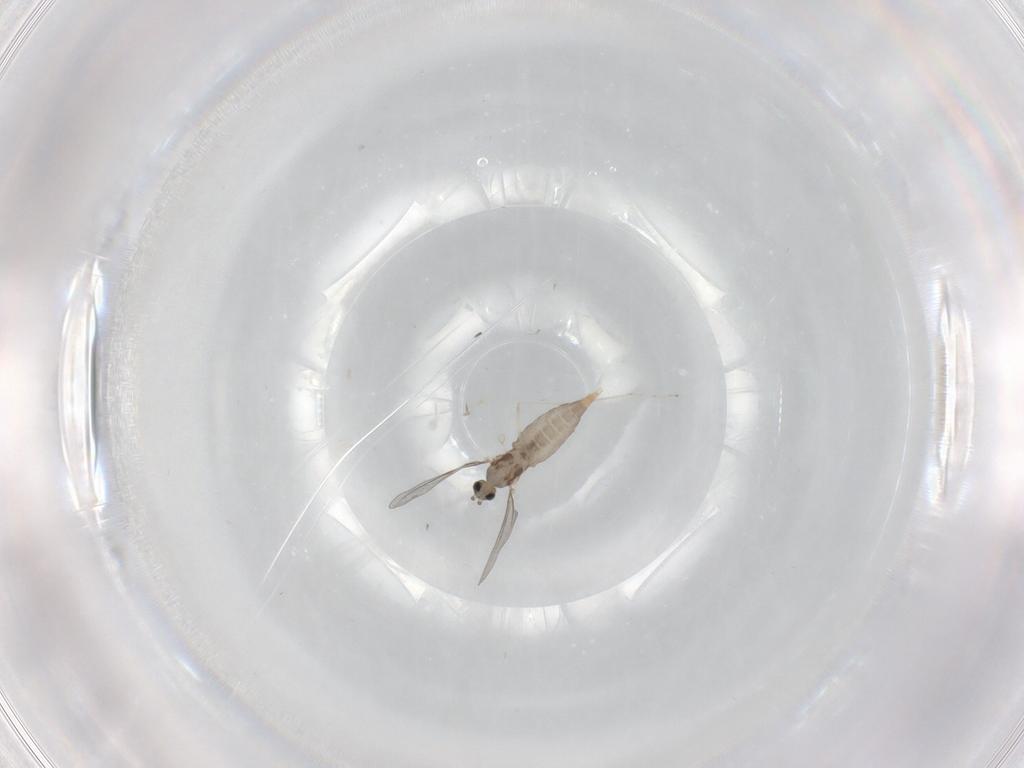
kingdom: Animalia
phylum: Arthropoda
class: Insecta
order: Diptera
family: Cecidomyiidae
